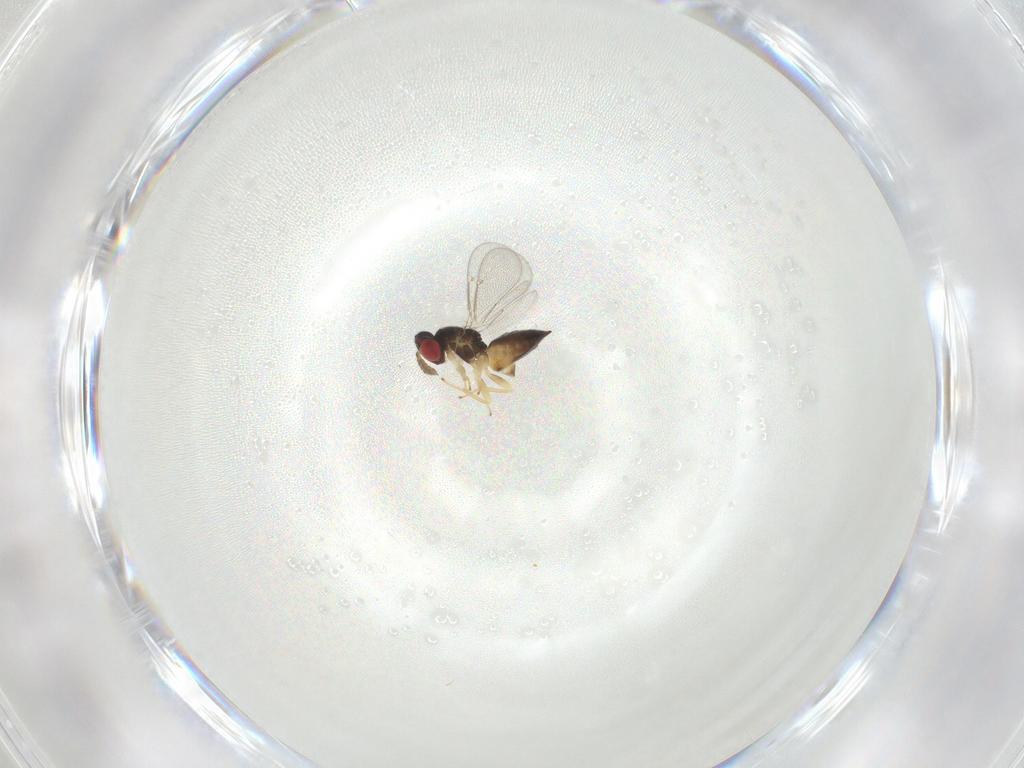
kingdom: Animalia
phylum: Arthropoda
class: Insecta
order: Hymenoptera
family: Eulophidae
